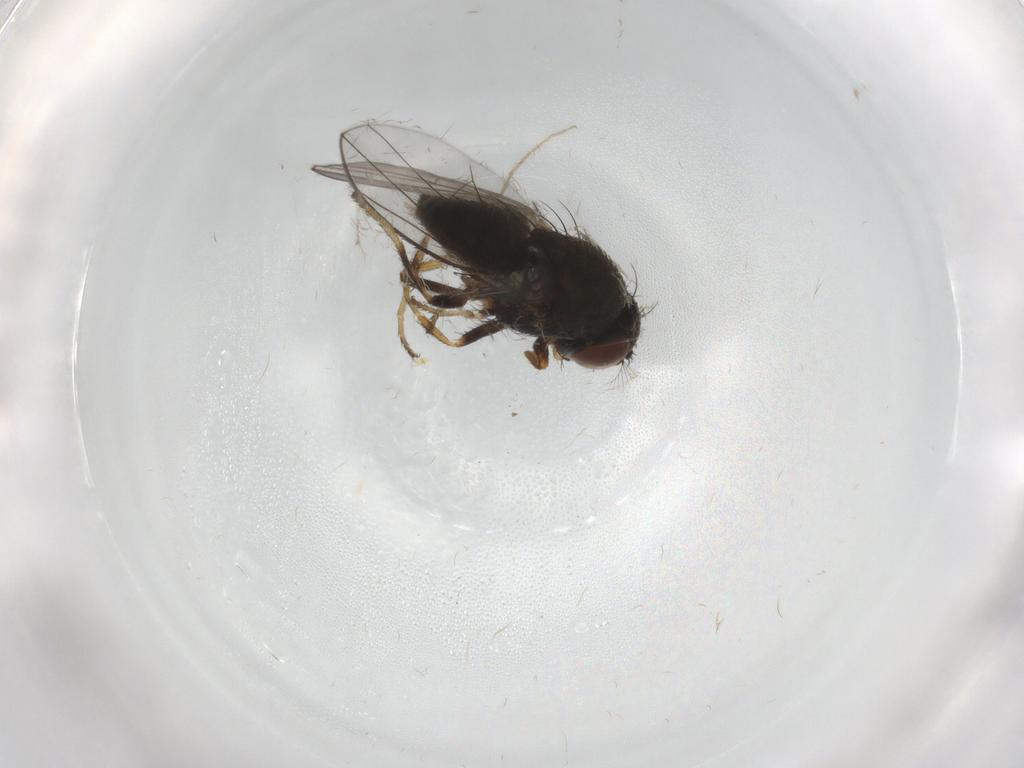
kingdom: Animalia
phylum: Arthropoda
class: Insecta
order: Diptera
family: Ephydridae
